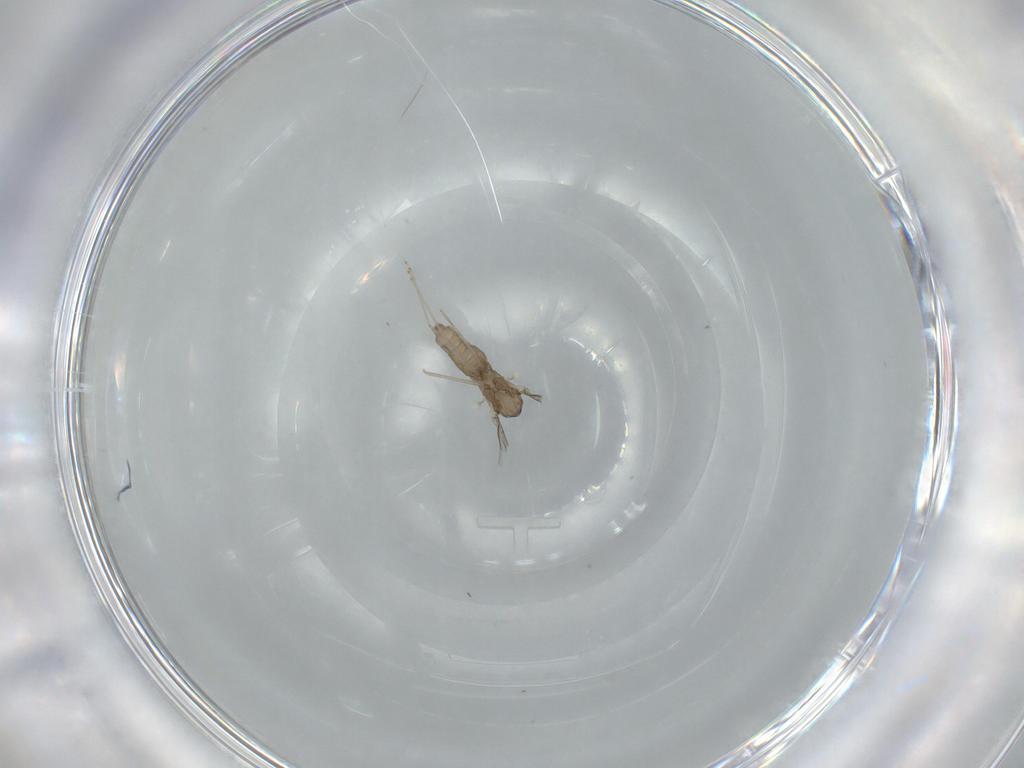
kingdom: Animalia
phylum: Arthropoda
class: Insecta
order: Diptera
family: Cecidomyiidae
